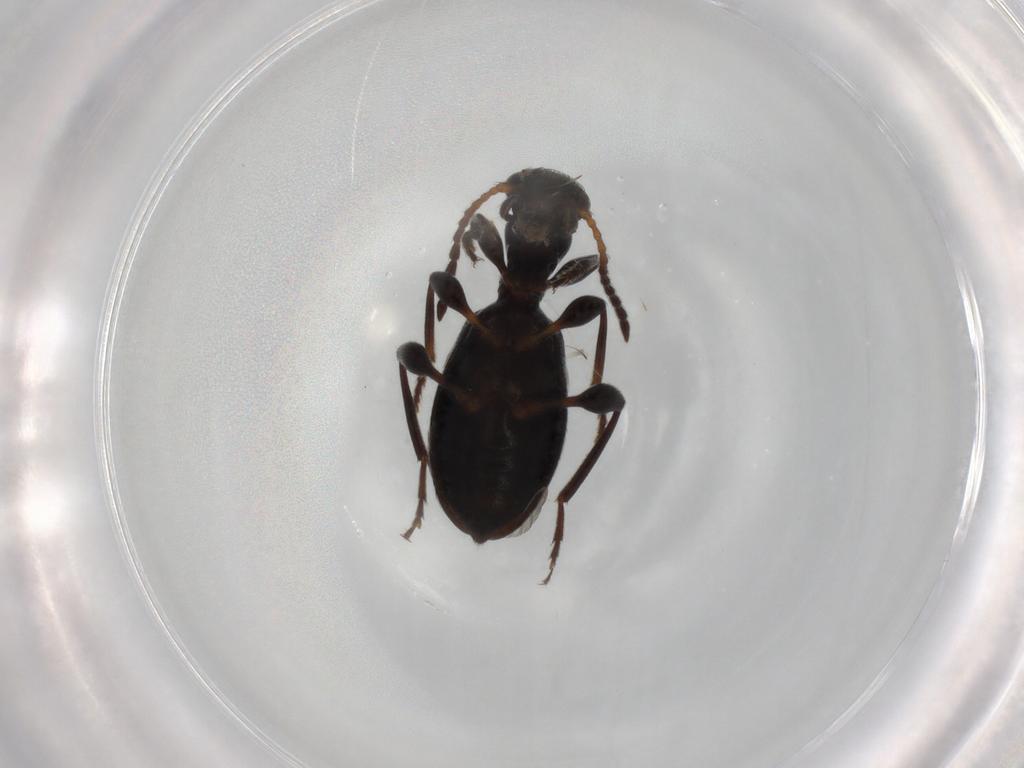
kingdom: Animalia
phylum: Arthropoda
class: Insecta
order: Coleoptera
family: Anthicidae
